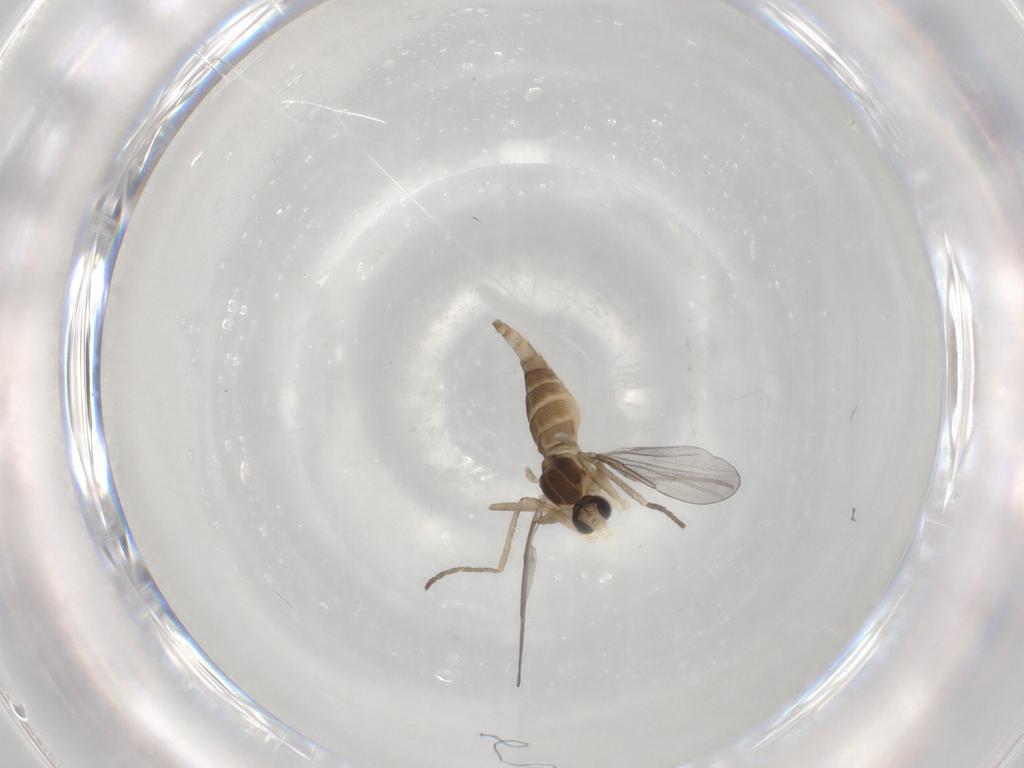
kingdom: Animalia
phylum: Arthropoda
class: Insecta
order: Diptera
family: Cecidomyiidae
